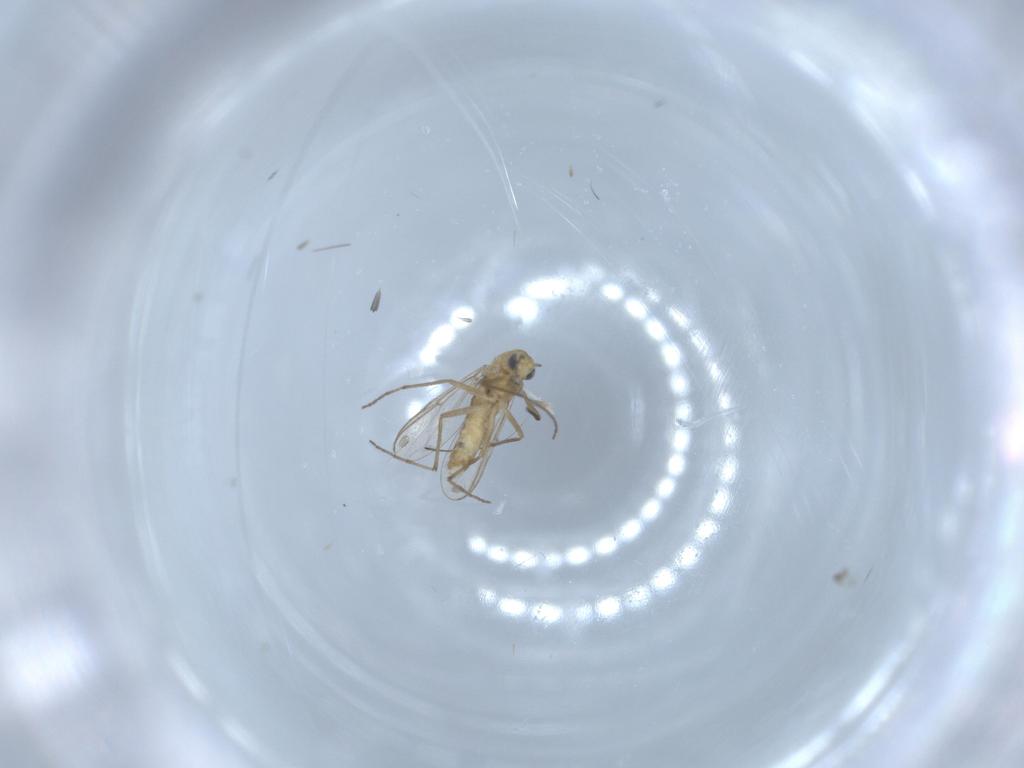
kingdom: Animalia
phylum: Arthropoda
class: Insecta
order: Diptera
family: Chironomidae
